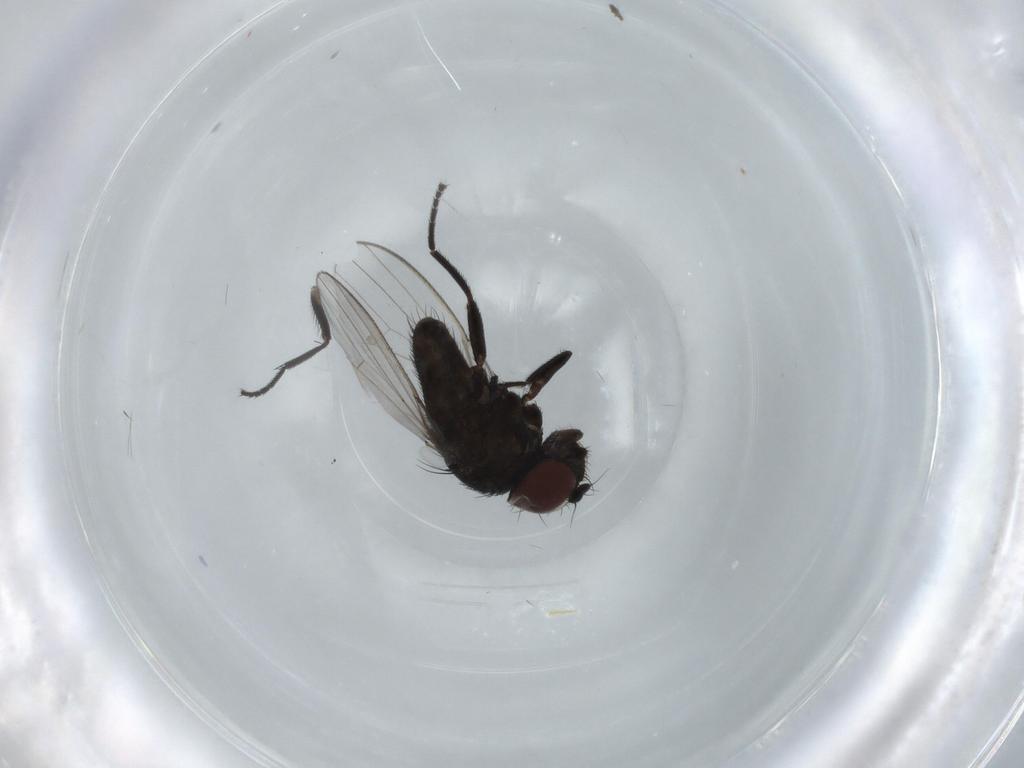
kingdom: Animalia
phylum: Arthropoda
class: Insecta
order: Diptera
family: Milichiidae
